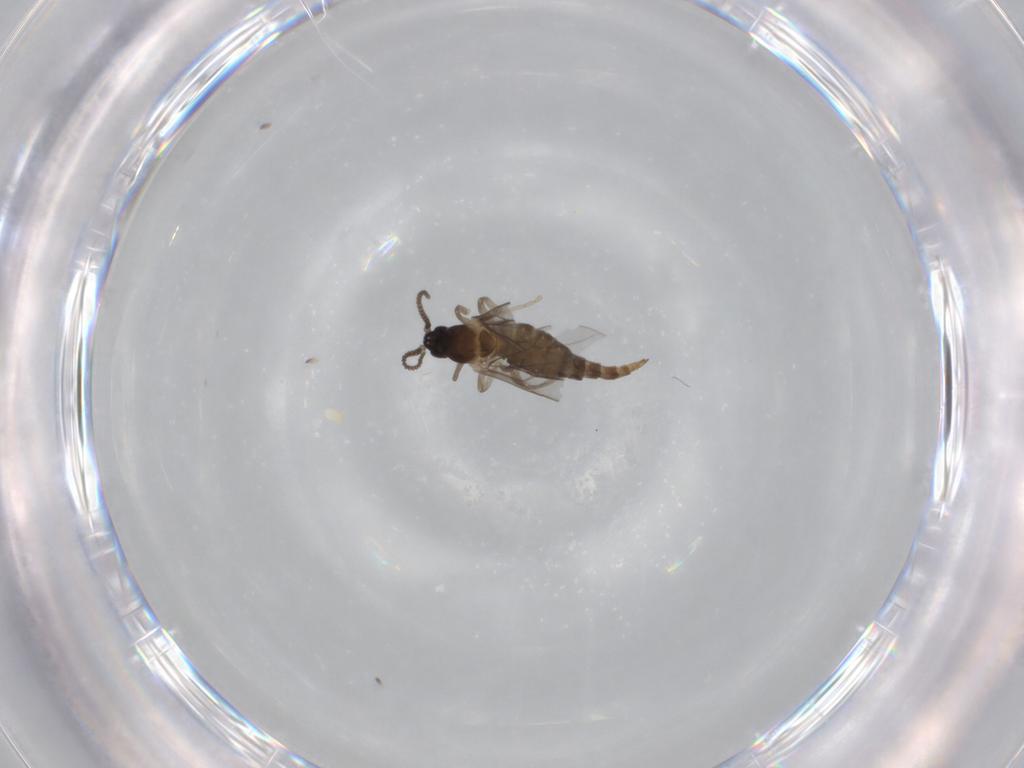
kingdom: Animalia
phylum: Arthropoda
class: Insecta
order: Diptera
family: Cecidomyiidae
